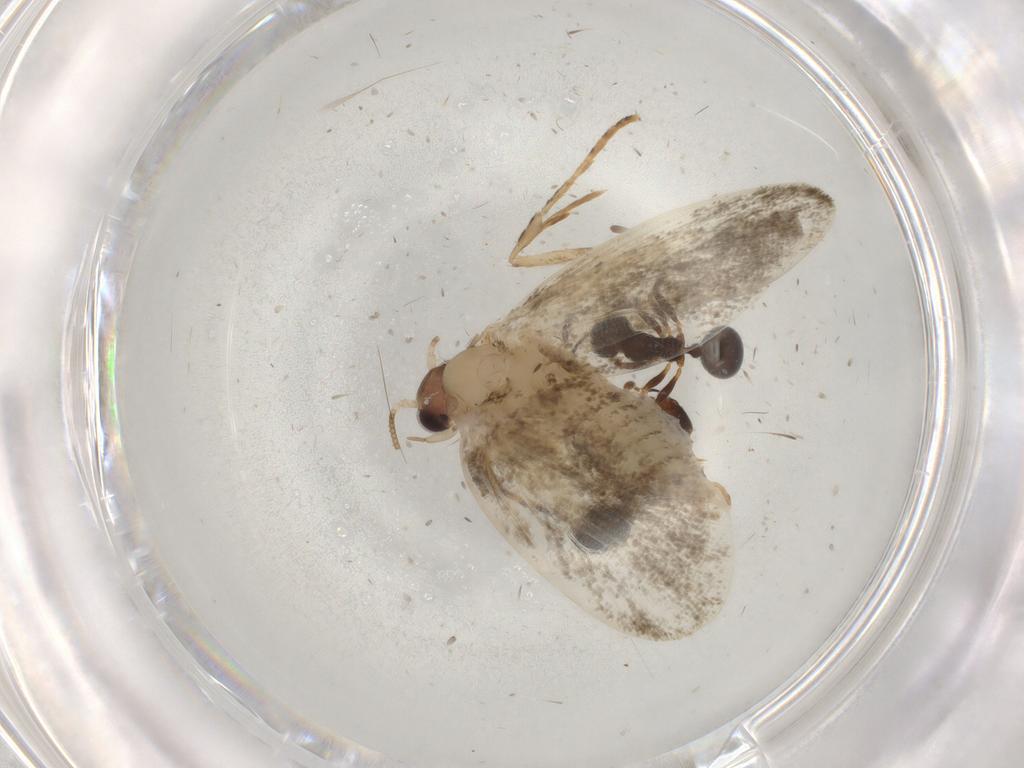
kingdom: Animalia
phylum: Arthropoda
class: Insecta
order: Lepidoptera
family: Psychidae
